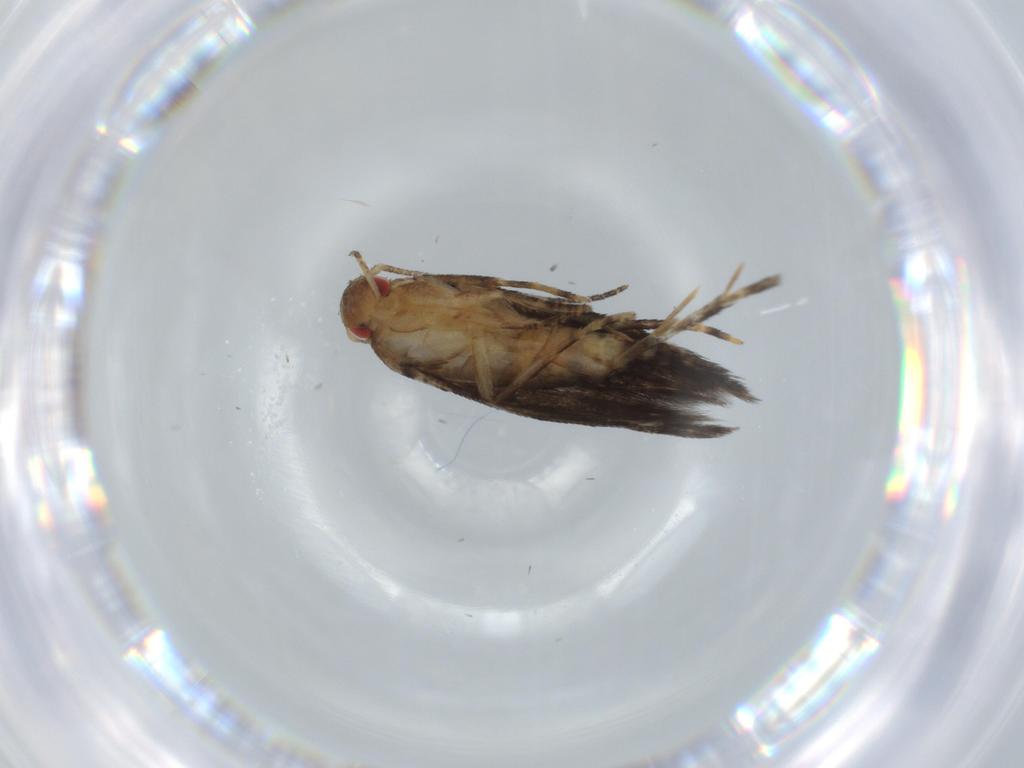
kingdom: Animalia
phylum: Arthropoda
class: Insecta
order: Lepidoptera
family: Momphidae
